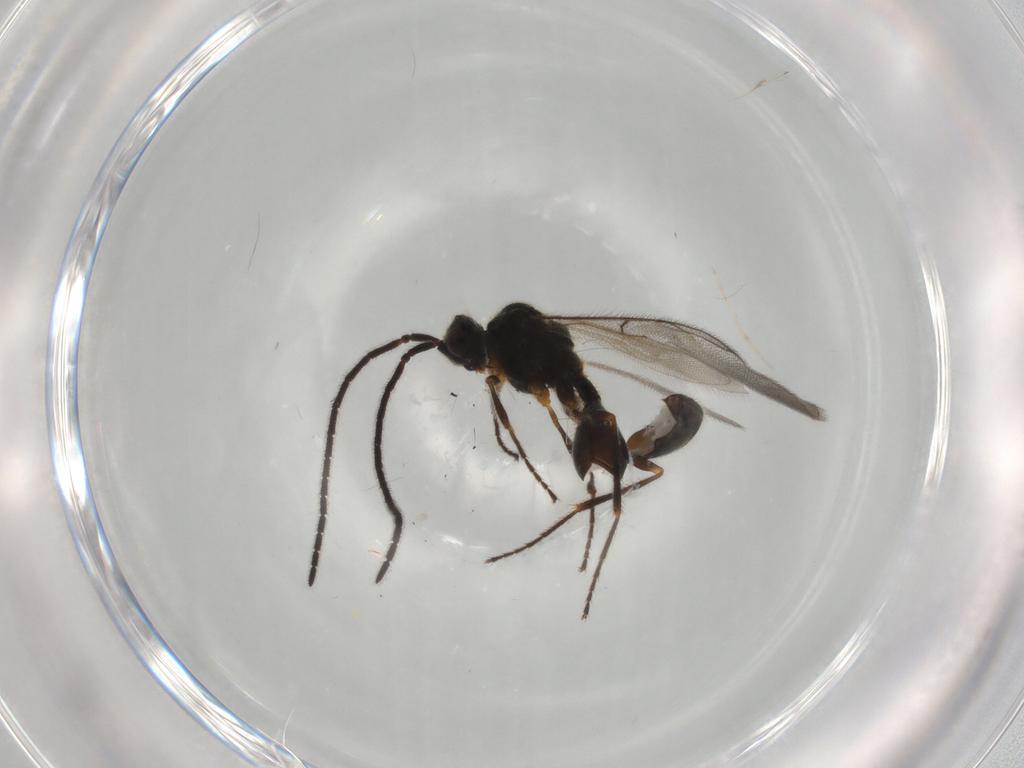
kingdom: Animalia
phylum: Arthropoda
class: Insecta
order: Hymenoptera
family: Diapriidae
